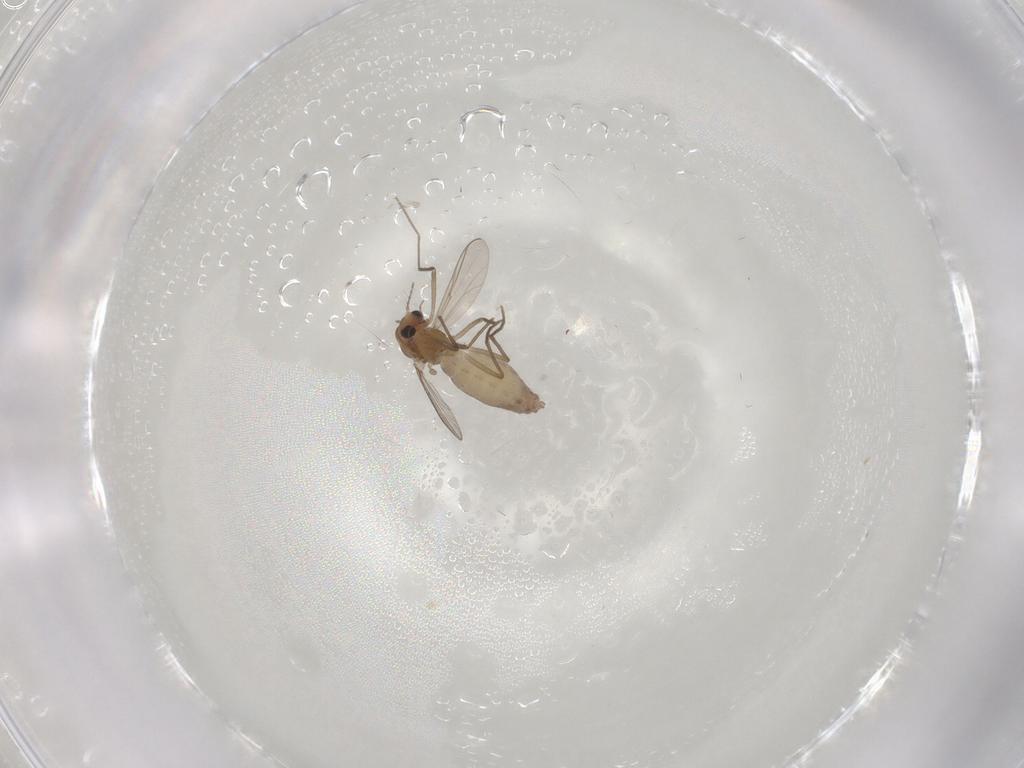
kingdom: Animalia
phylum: Arthropoda
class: Insecta
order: Diptera
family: Chironomidae
